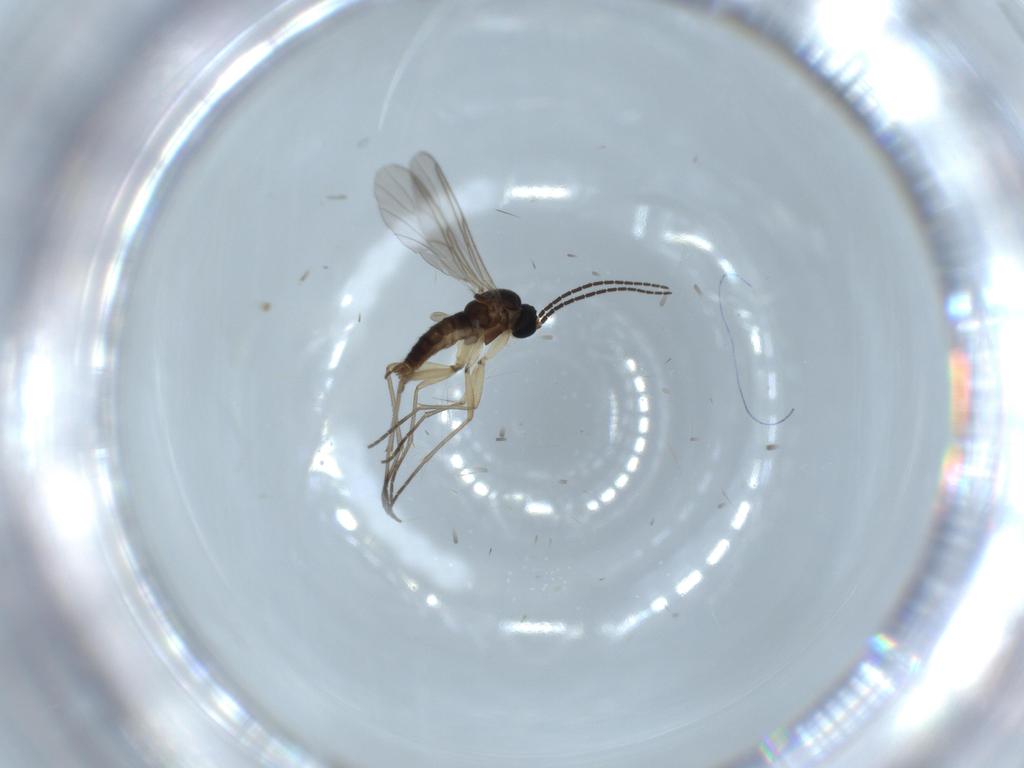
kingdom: Animalia
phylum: Arthropoda
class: Insecta
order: Diptera
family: Sciaridae
